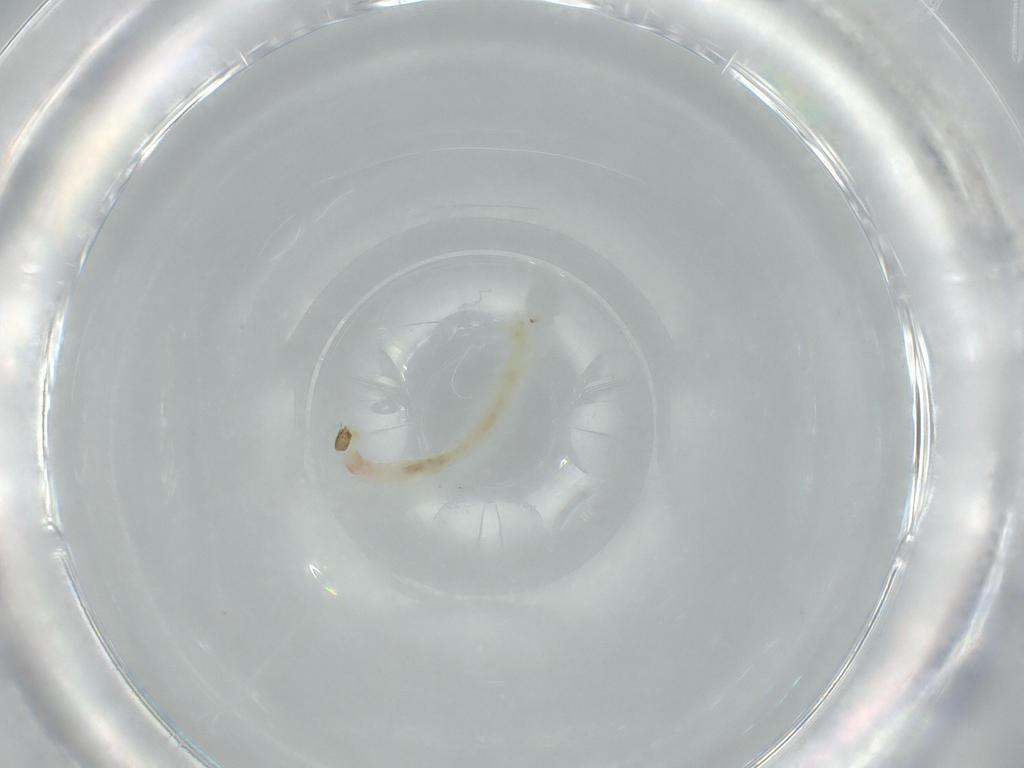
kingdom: Animalia
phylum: Arthropoda
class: Insecta
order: Diptera
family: Chironomidae
